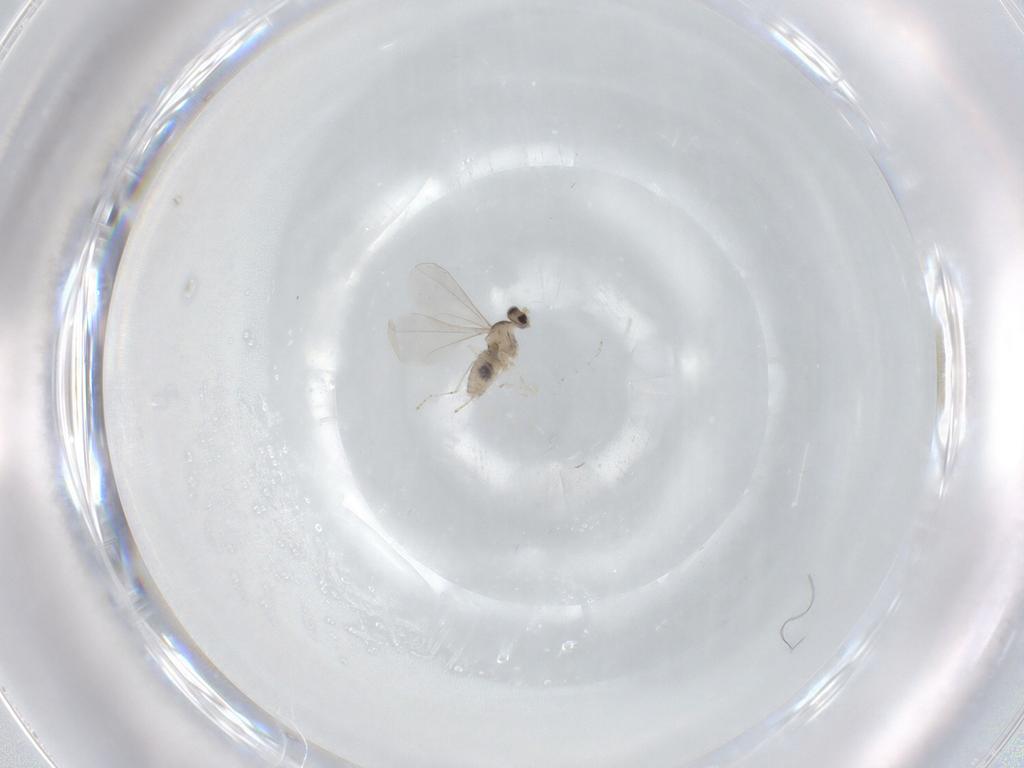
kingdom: Animalia
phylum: Arthropoda
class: Insecta
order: Diptera
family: Cecidomyiidae
